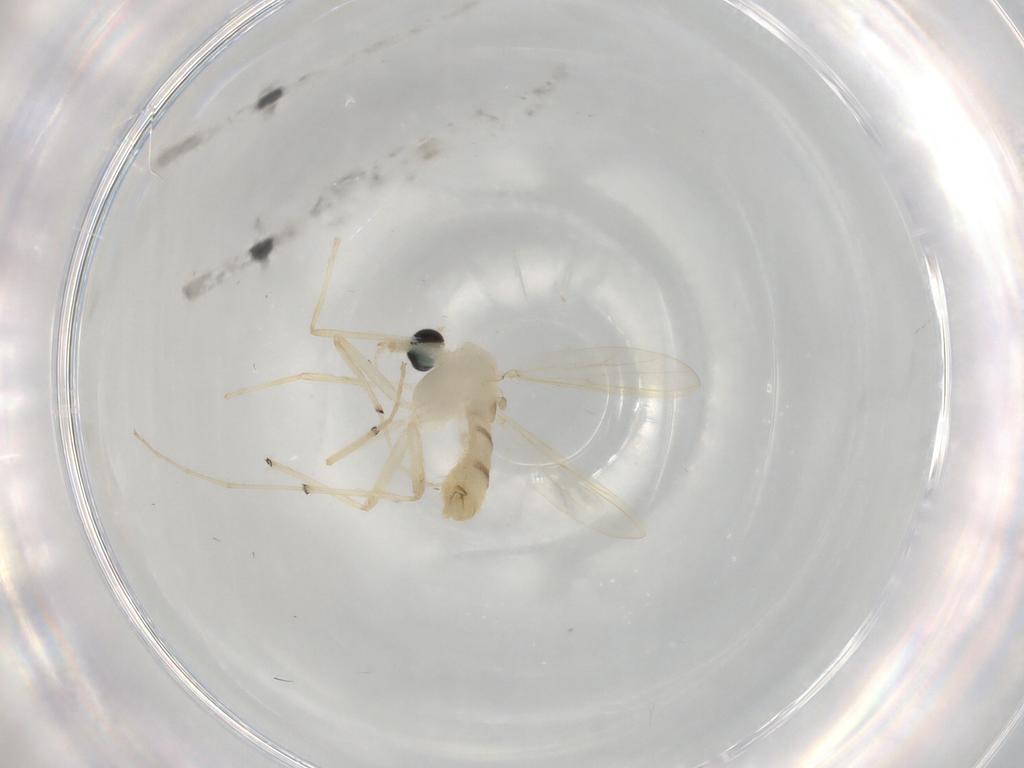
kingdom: Animalia
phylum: Arthropoda
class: Insecta
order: Diptera
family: Chironomidae
